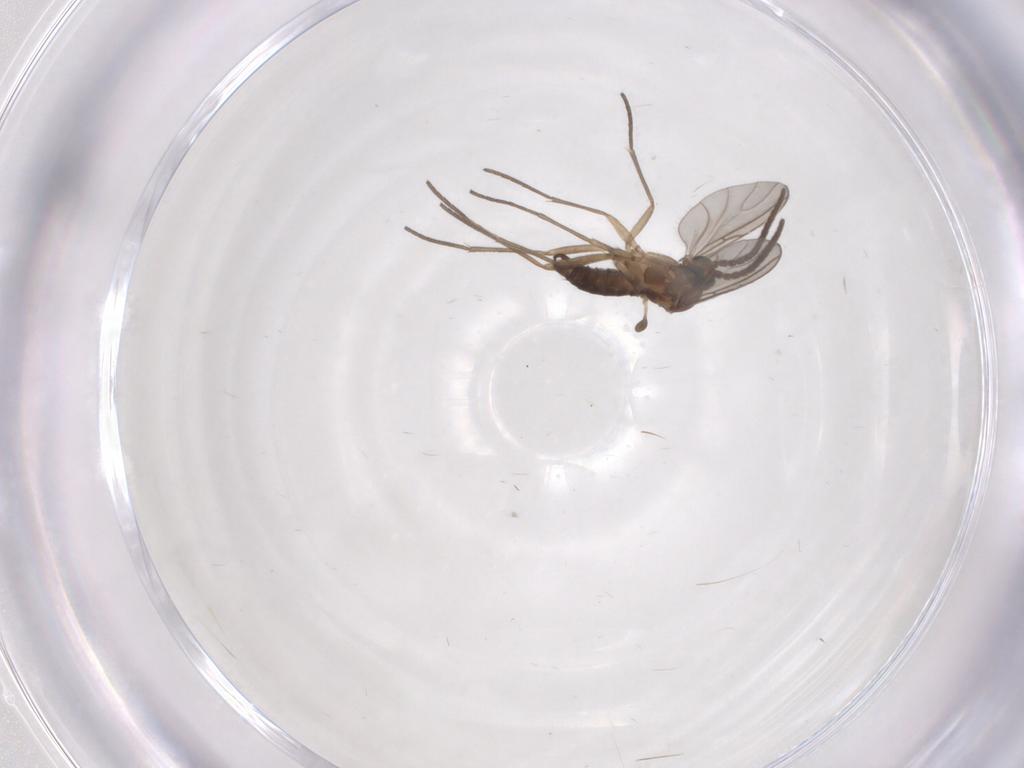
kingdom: Animalia
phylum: Arthropoda
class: Insecta
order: Diptera
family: Sciaridae
